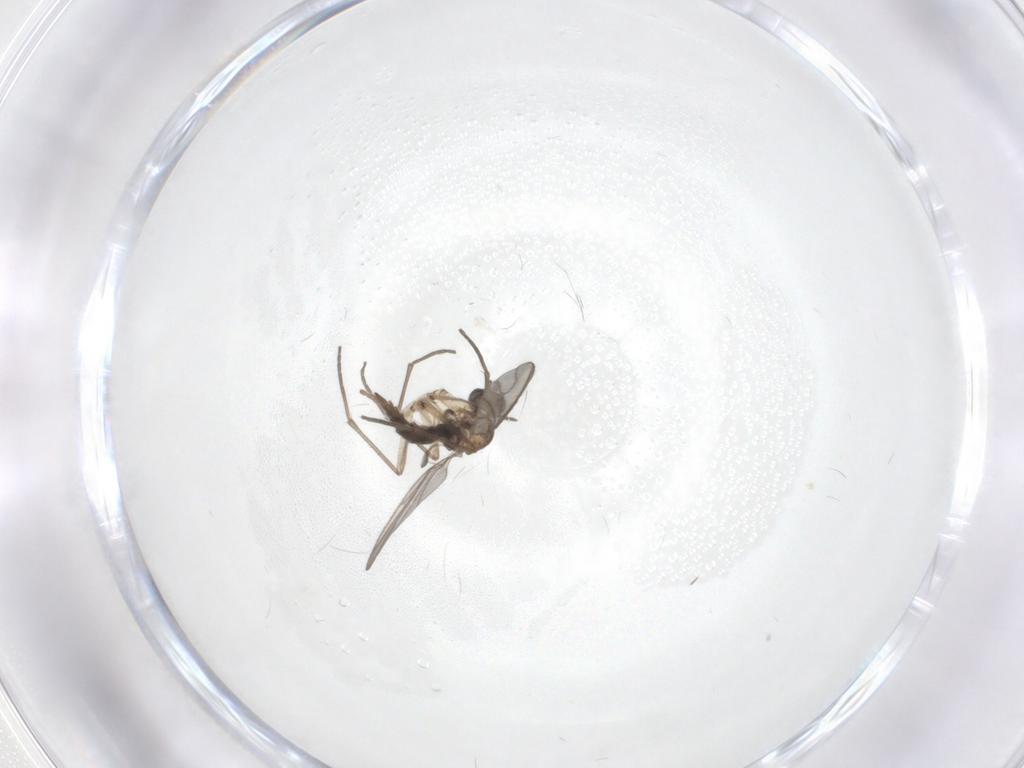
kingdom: Animalia
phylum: Arthropoda
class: Insecta
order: Diptera
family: Sciaridae
